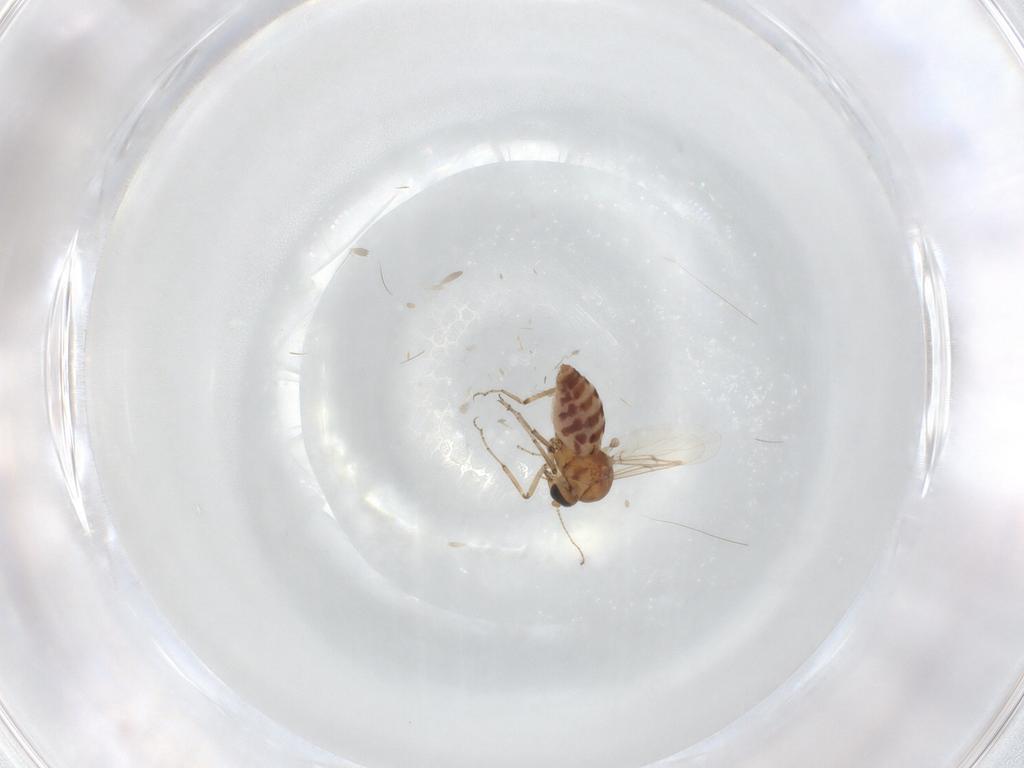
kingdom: Animalia
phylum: Arthropoda
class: Insecta
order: Diptera
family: Ceratopogonidae
